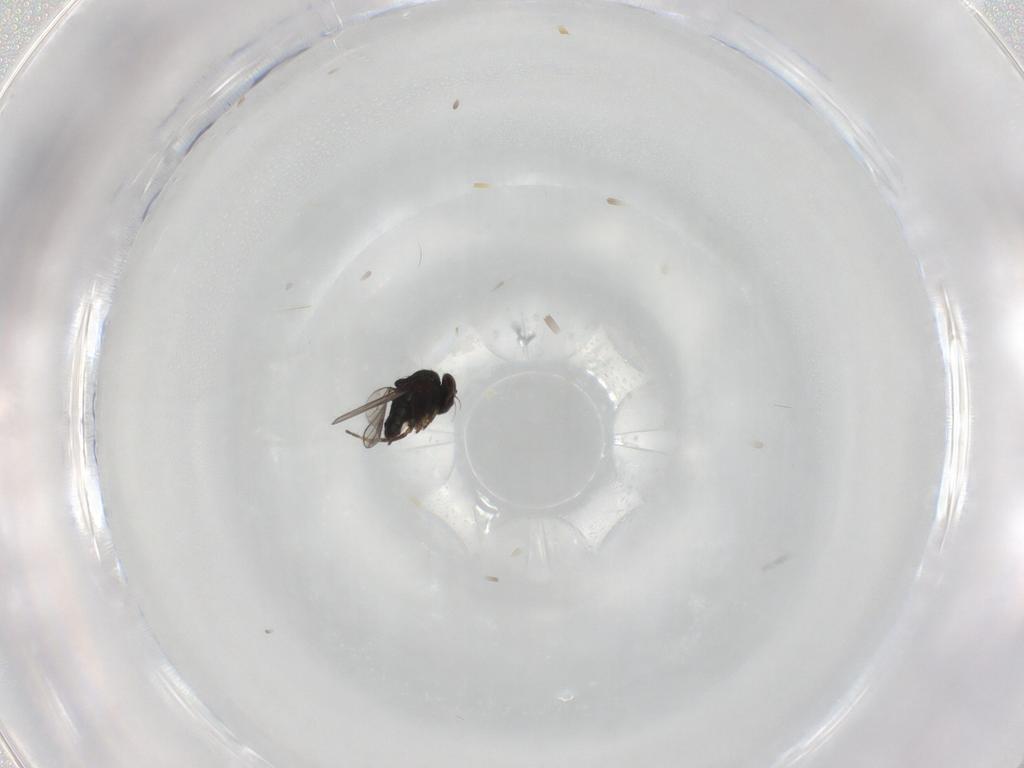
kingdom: Animalia
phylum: Arthropoda
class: Insecta
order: Diptera
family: Dolichopodidae
